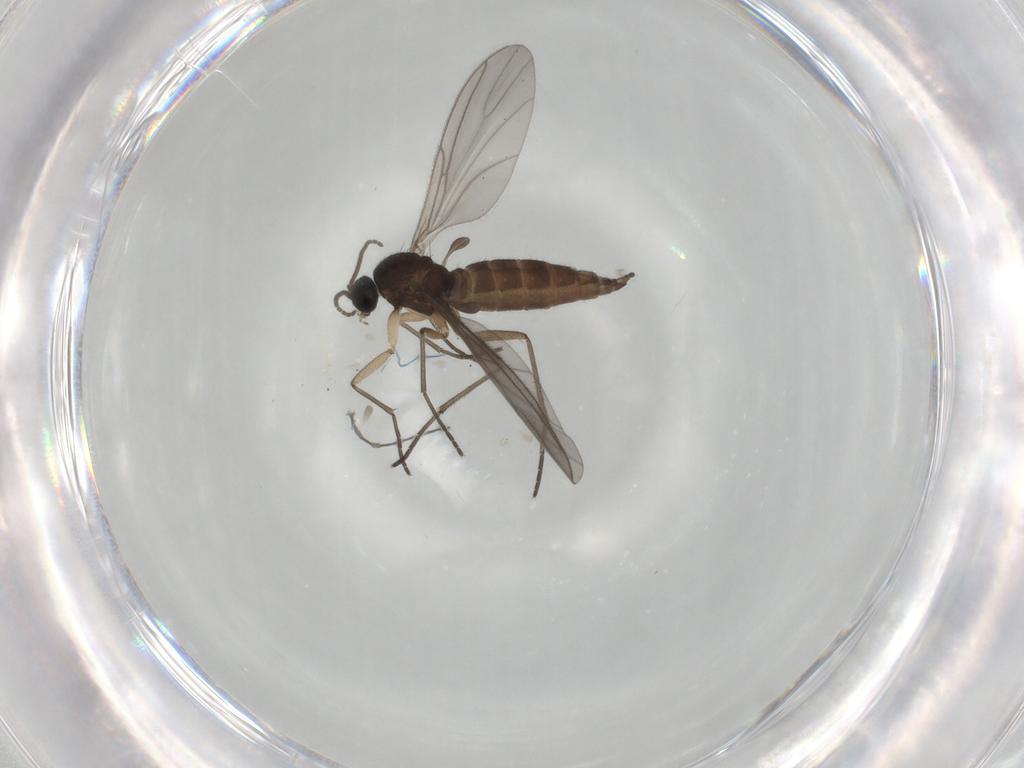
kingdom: Animalia
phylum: Arthropoda
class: Insecta
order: Diptera
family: Sciaridae
